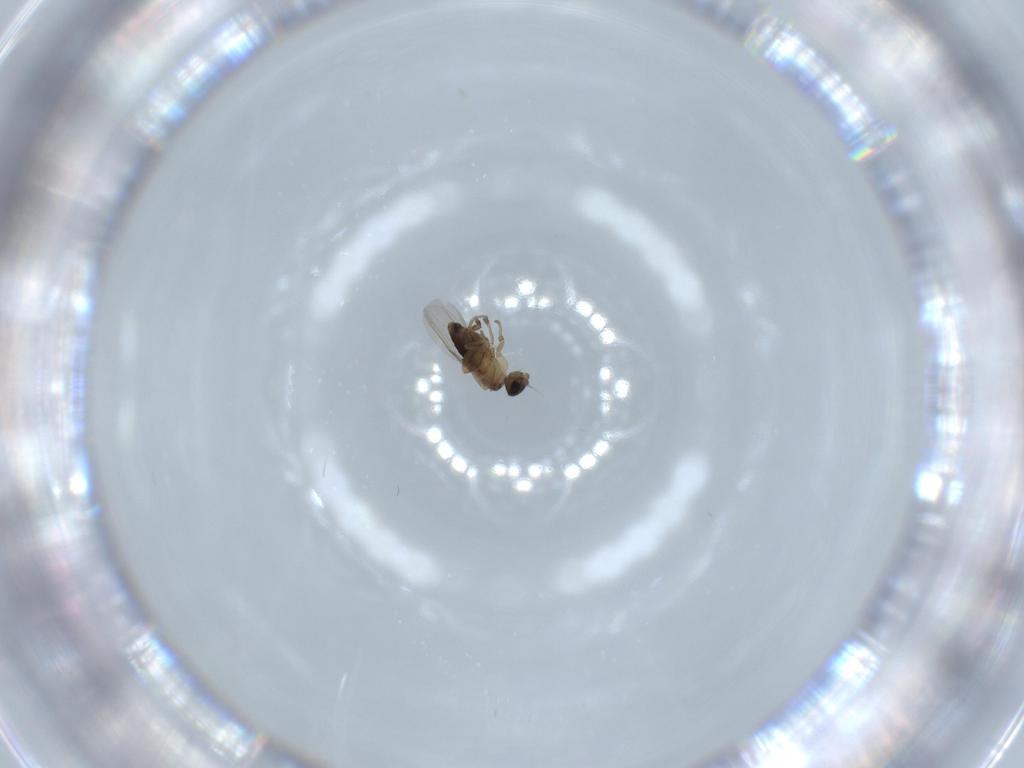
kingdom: Animalia
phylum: Arthropoda
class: Insecta
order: Diptera
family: Phoridae
